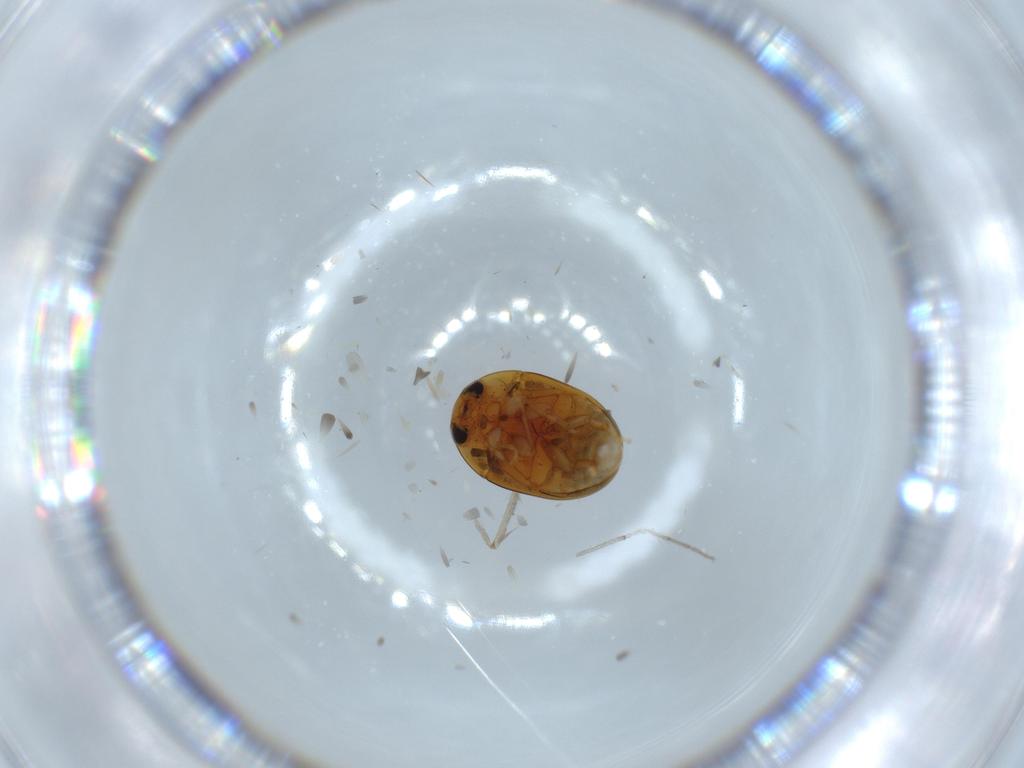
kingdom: Animalia
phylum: Arthropoda
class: Insecta
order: Coleoptera
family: Phalacridae
